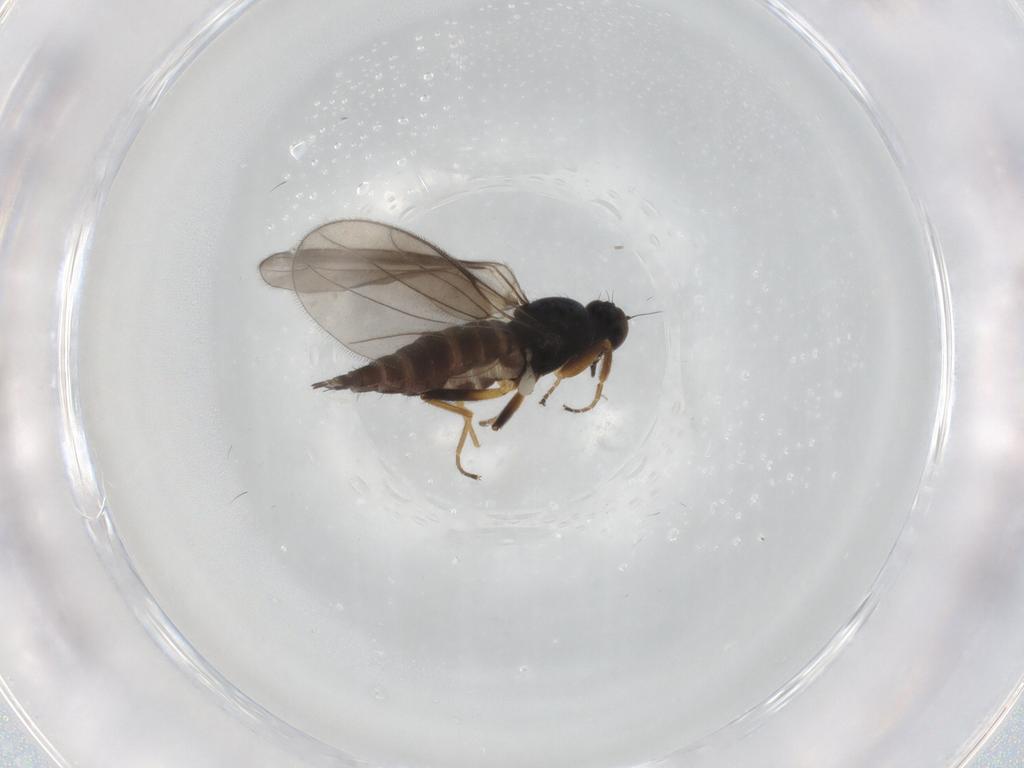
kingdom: Animalia
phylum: Arthropoda
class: Insecta
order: Diptera
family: Hybotidae
